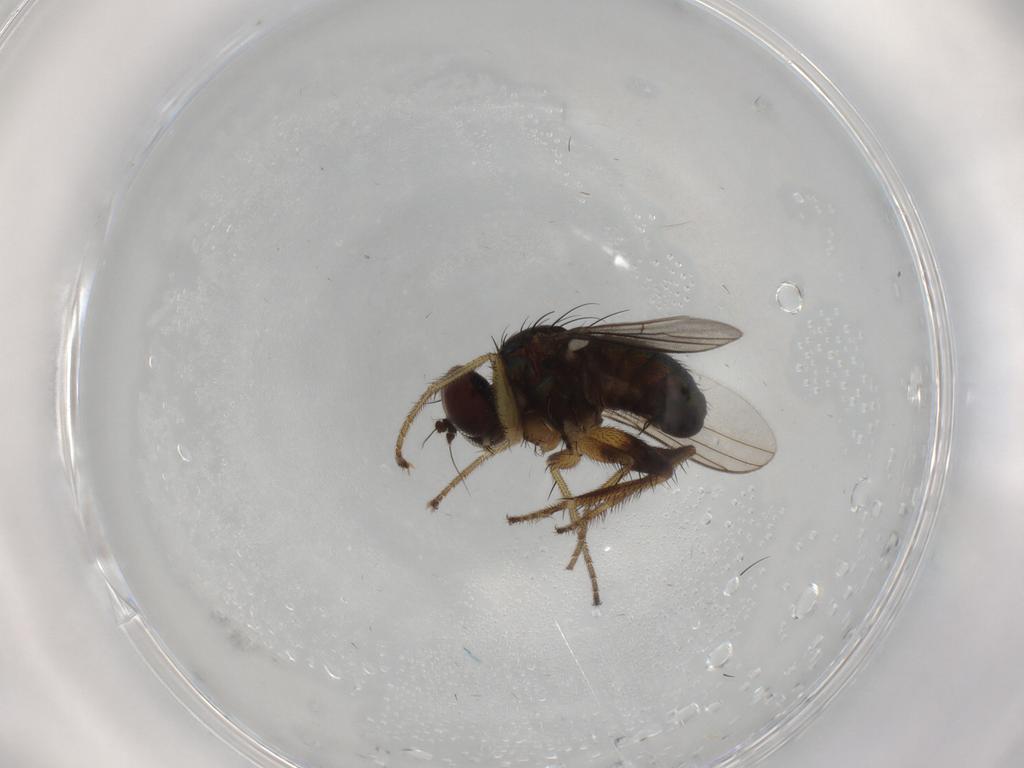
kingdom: Animalia
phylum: Arthropoda
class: Insecta
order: Diptera
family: Dolichopodidae
